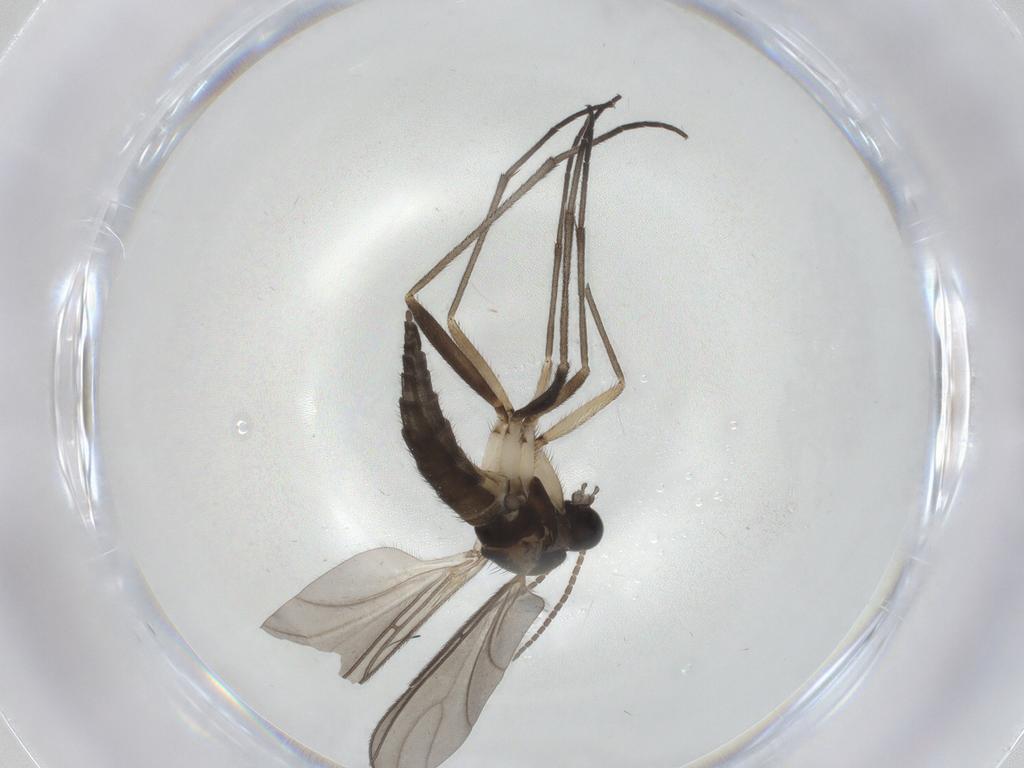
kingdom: Animalia
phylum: Arthropoda
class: Insecta
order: Diptera
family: Sciaridae
